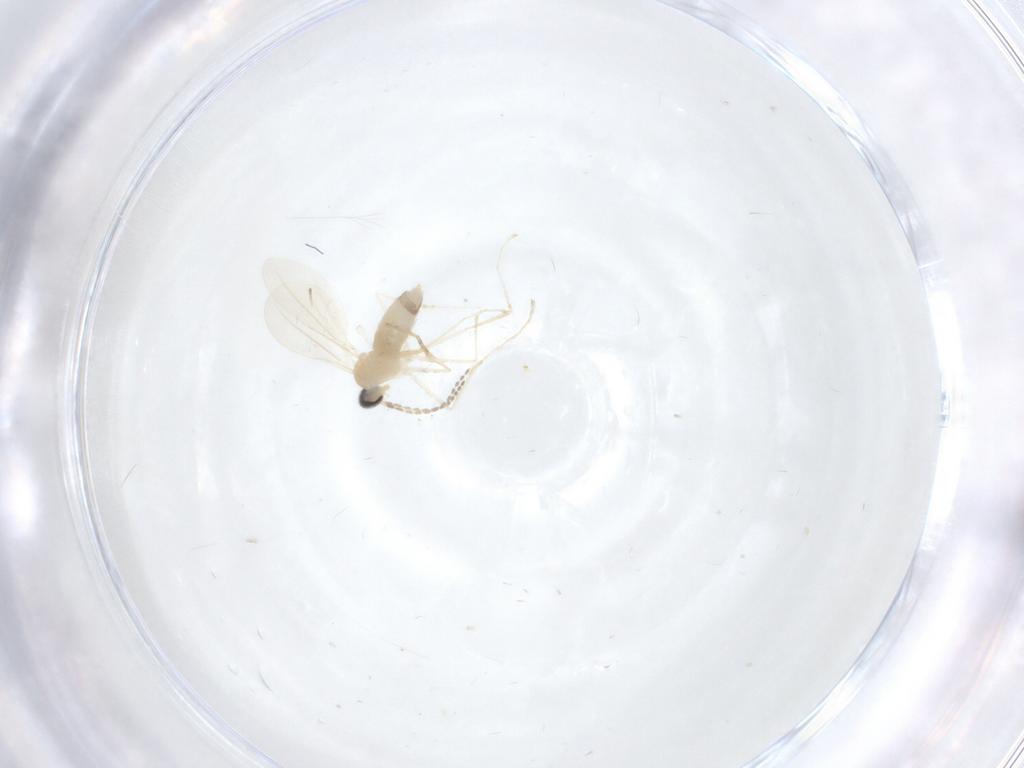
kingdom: Animalia
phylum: Arthropoda
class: Insecta
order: Diptera
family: Cecidomyiidae
